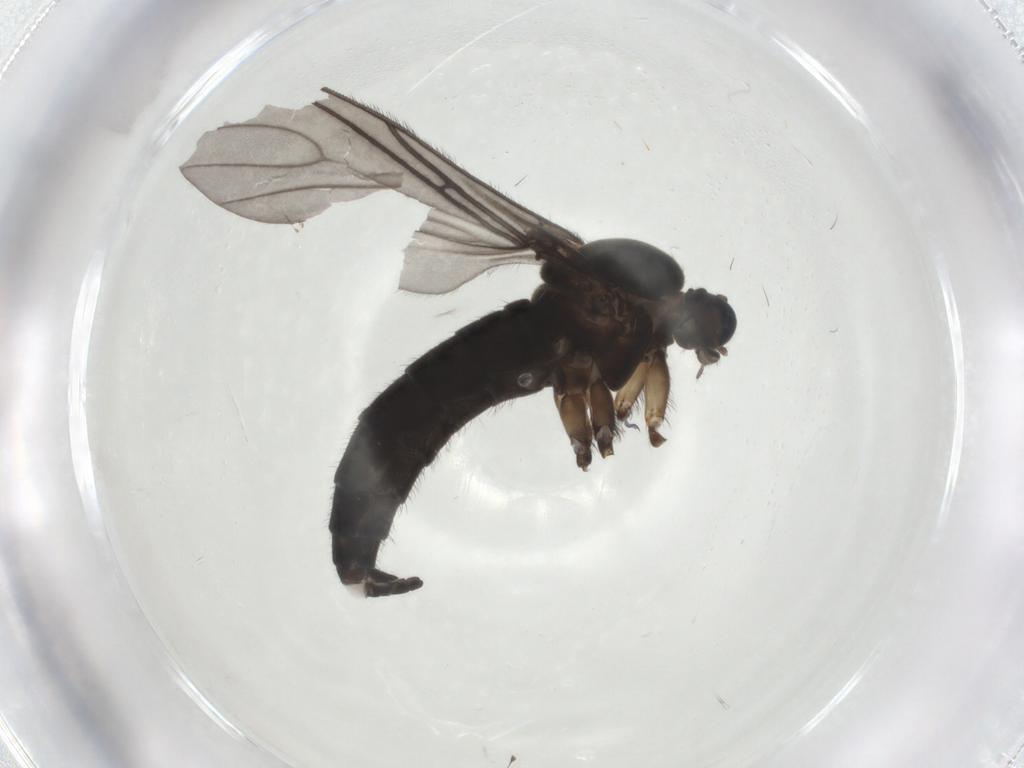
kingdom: Animalia
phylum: Arthropoda
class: Insecta
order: Diptera
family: Sciaridae
